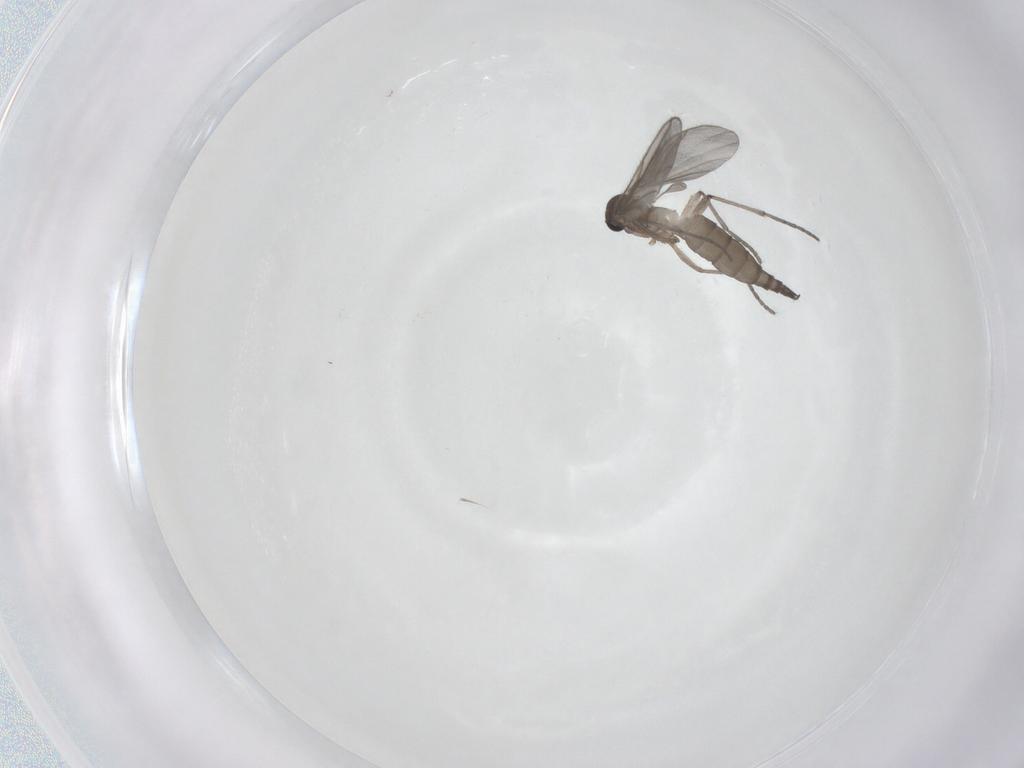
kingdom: Animalia
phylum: Arthropoda
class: Insecta
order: Diptera
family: Sciaridae
